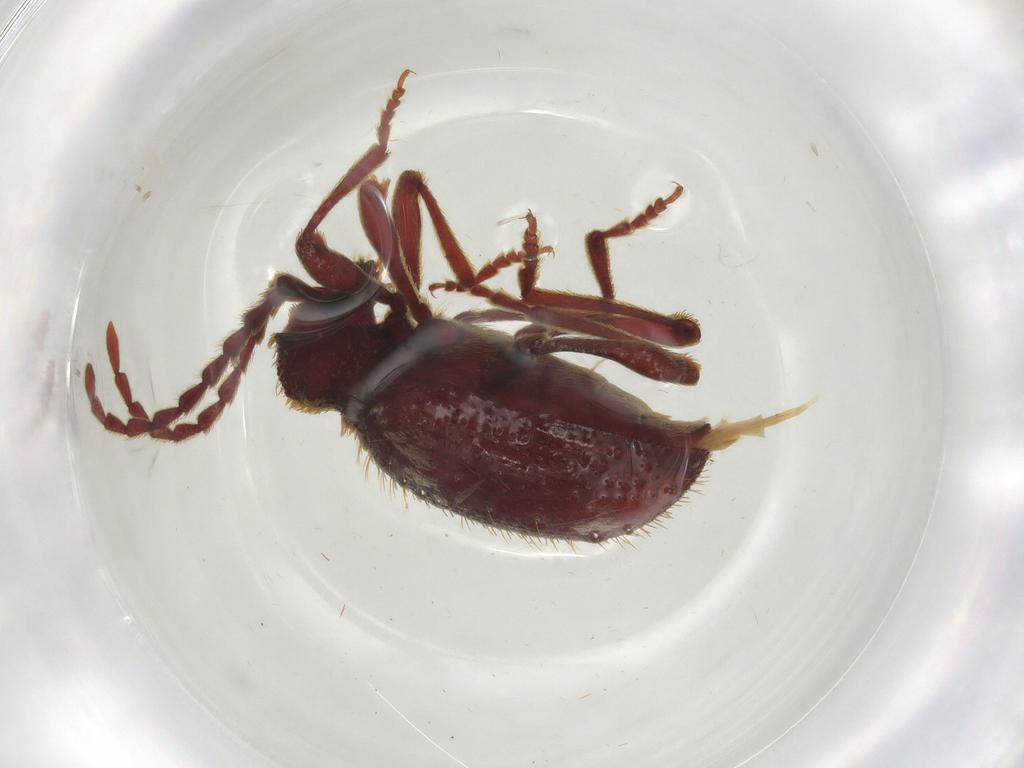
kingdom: Animalia
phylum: Arthropoda
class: Insecta
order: Coleoptera
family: Ptinidae
